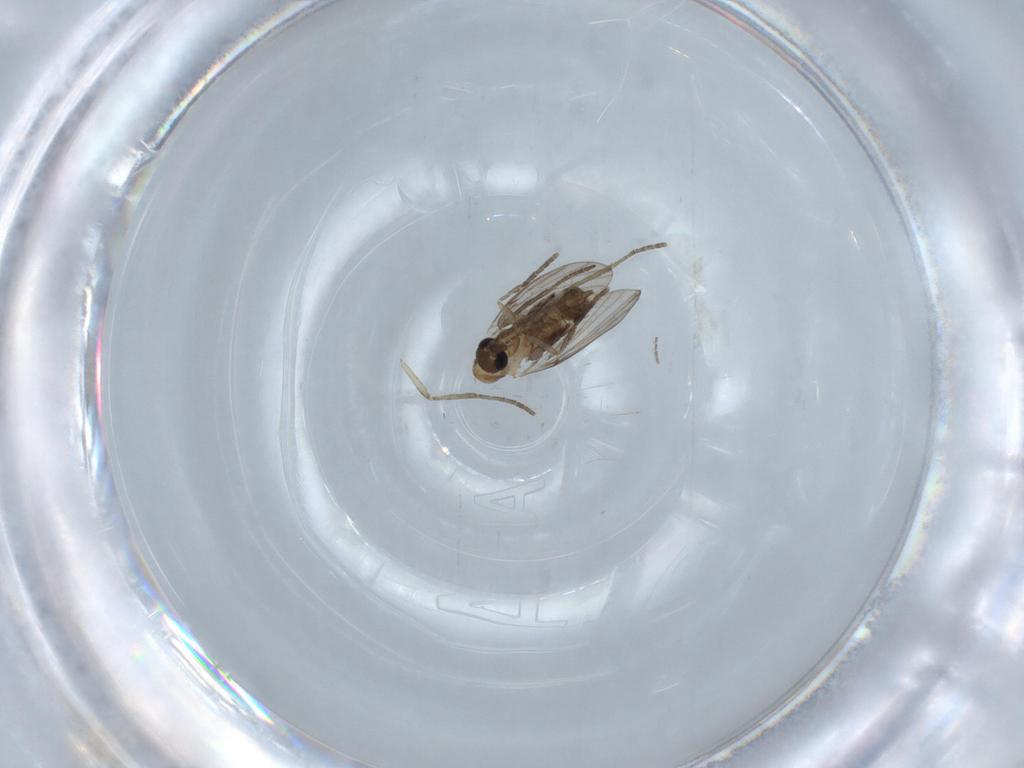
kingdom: Animalia
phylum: Arthropoda
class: Insecta
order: Diptera
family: Psychodidae
